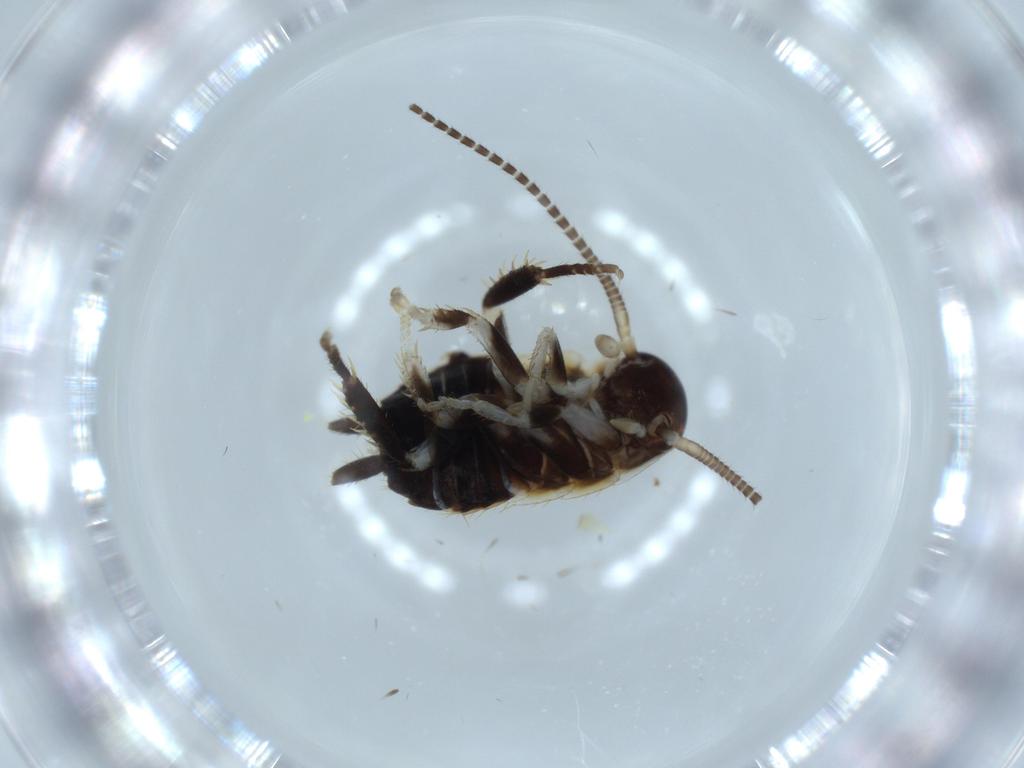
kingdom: Animalia
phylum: Arthropoda
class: Insecta
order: Blattodea
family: Ectobiidae
